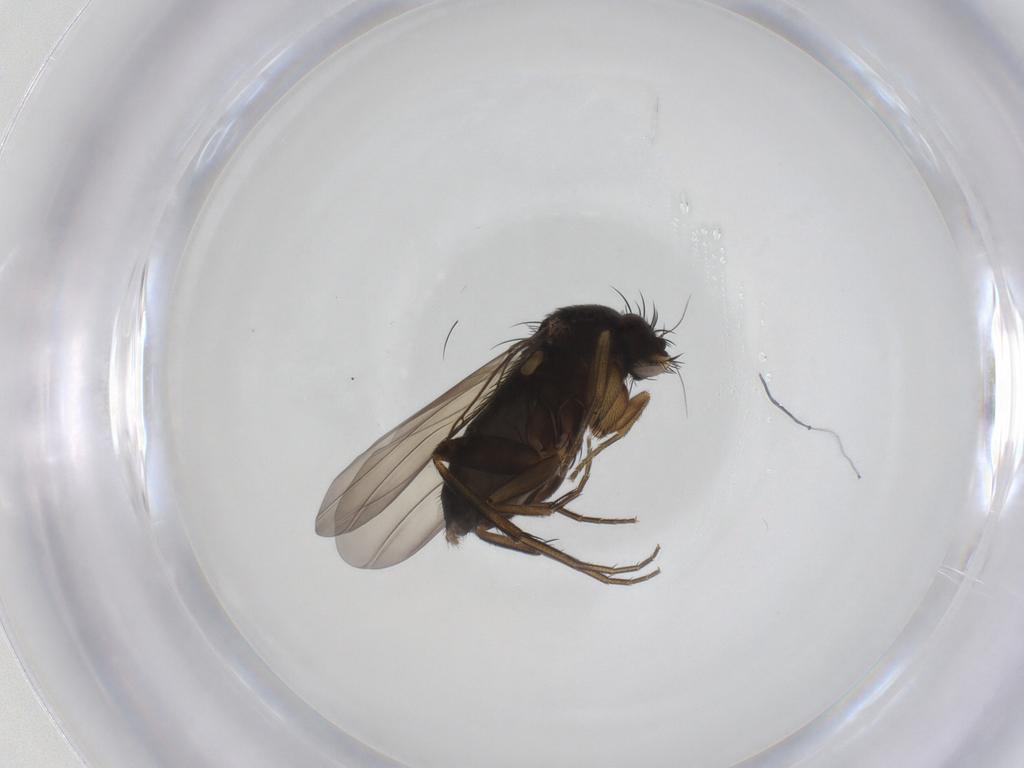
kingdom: Animalia
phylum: Arthropoda
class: Insecta
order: Diptera
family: Phoridae
